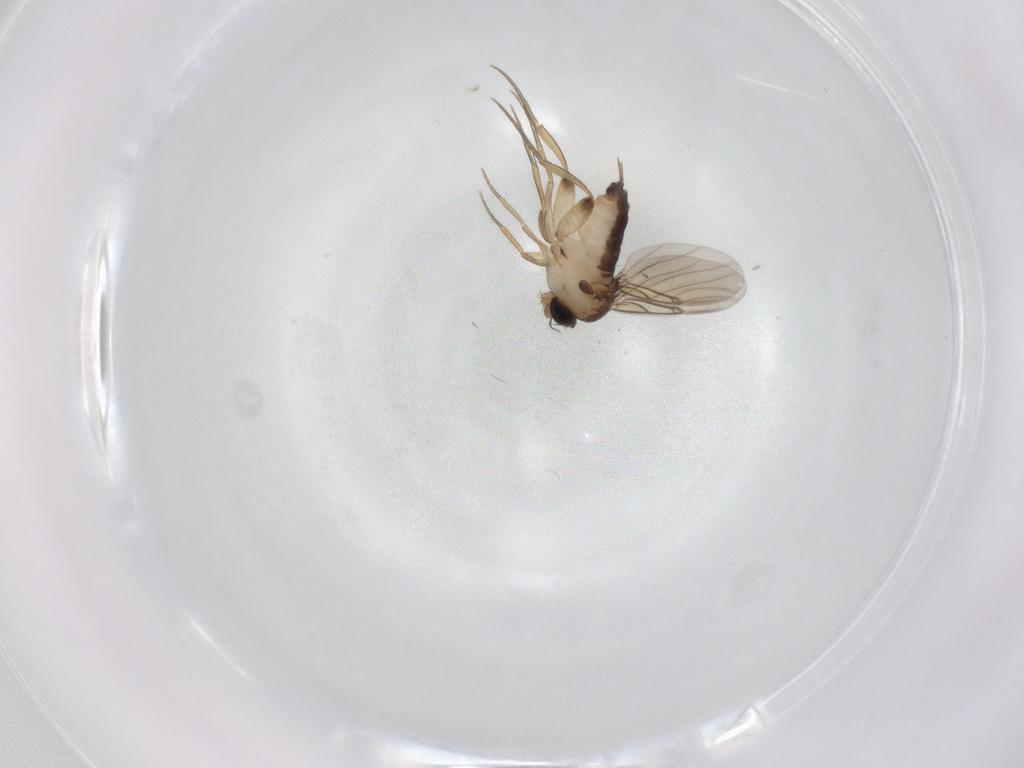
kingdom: Animalia
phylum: Arthropoda
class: Insecta
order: Diptera
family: Phoridae
